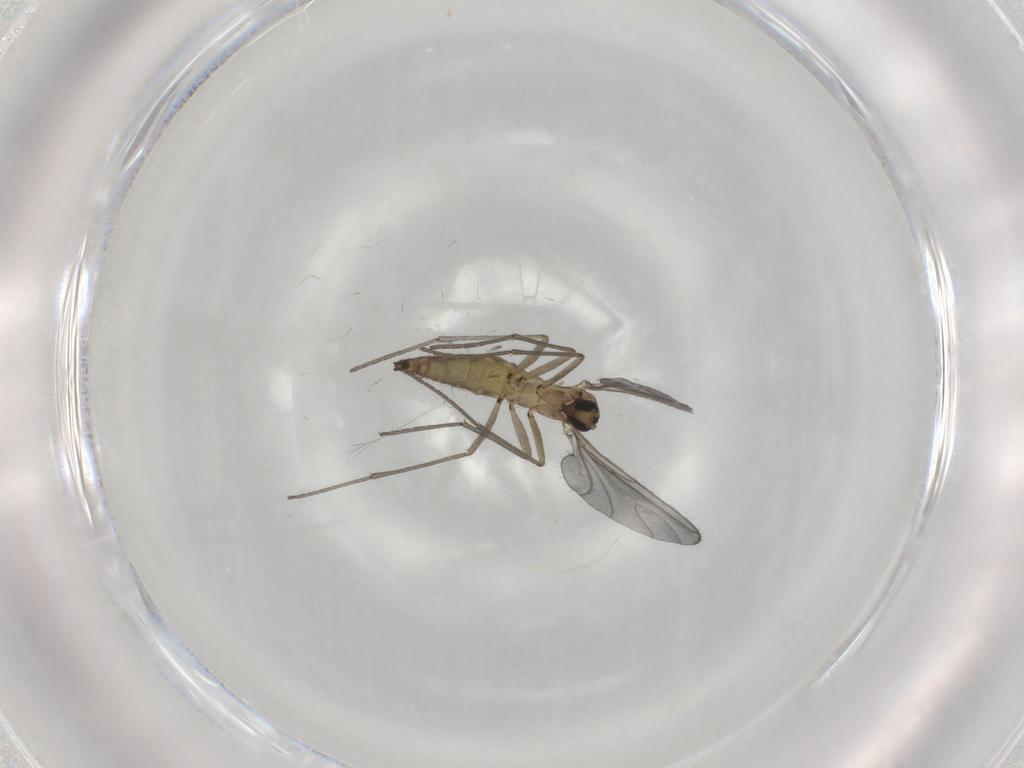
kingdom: Animalia
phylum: Arthropoda
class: Insecta
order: Diptera
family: Sciaridae
